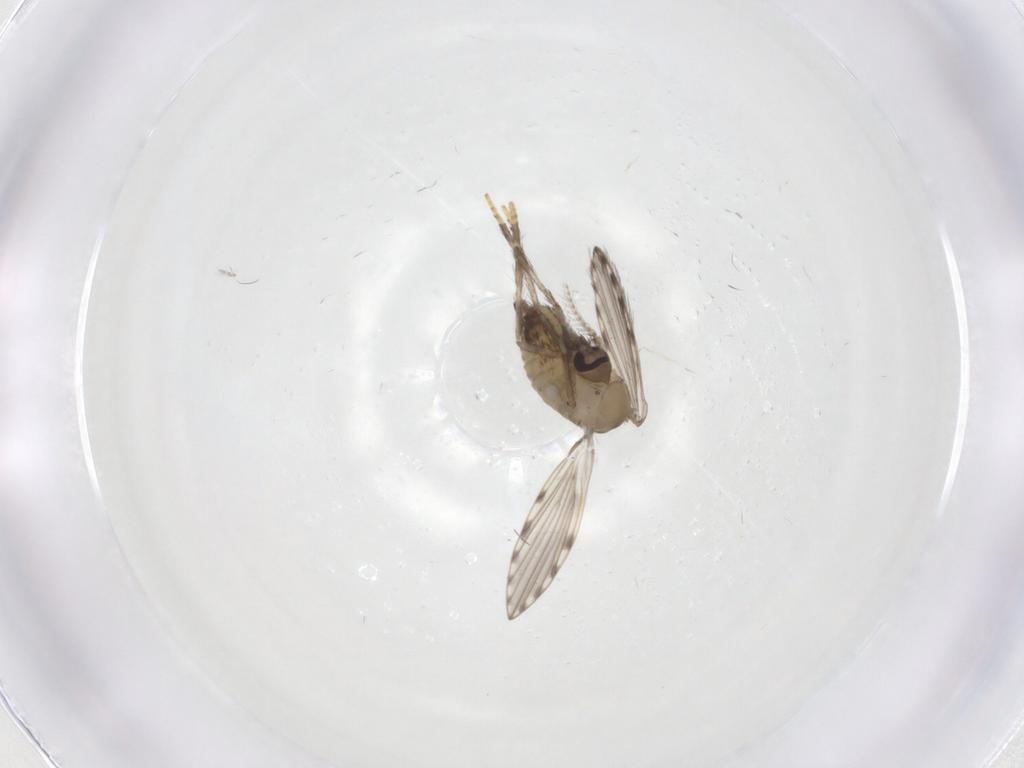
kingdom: Animalia
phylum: Arthropoda
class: Insecta
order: Diptera
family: Psychodidae
